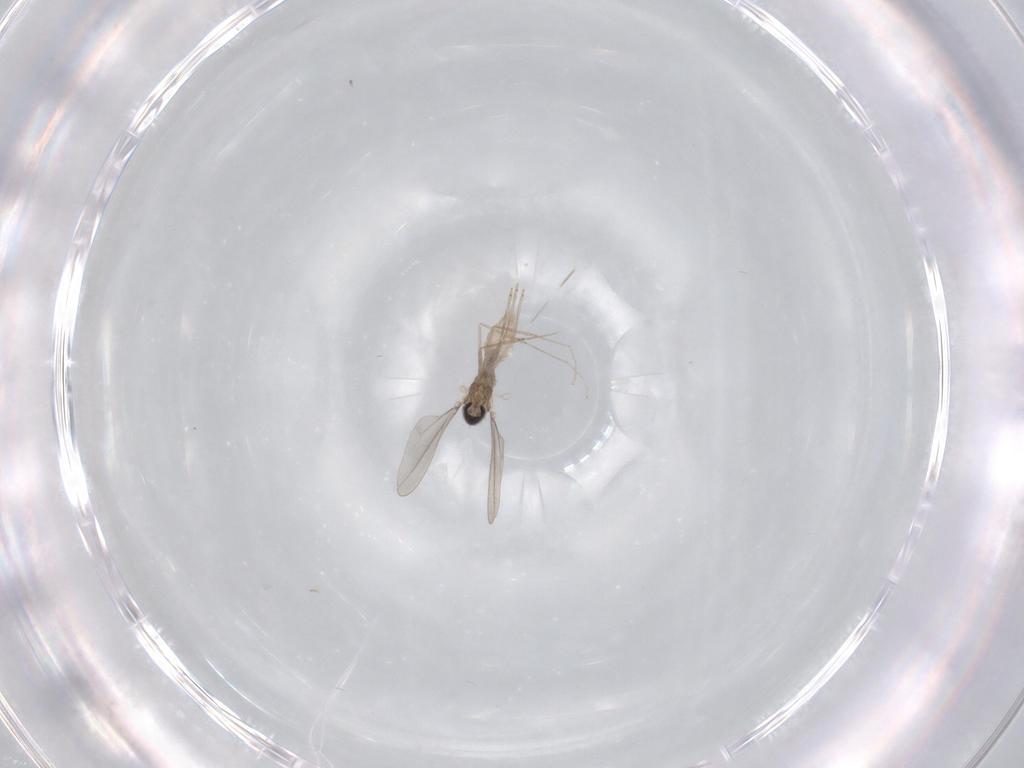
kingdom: Animalia
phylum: Arthropoda
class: Insecta
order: Diptera
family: Cecidomyiidae
